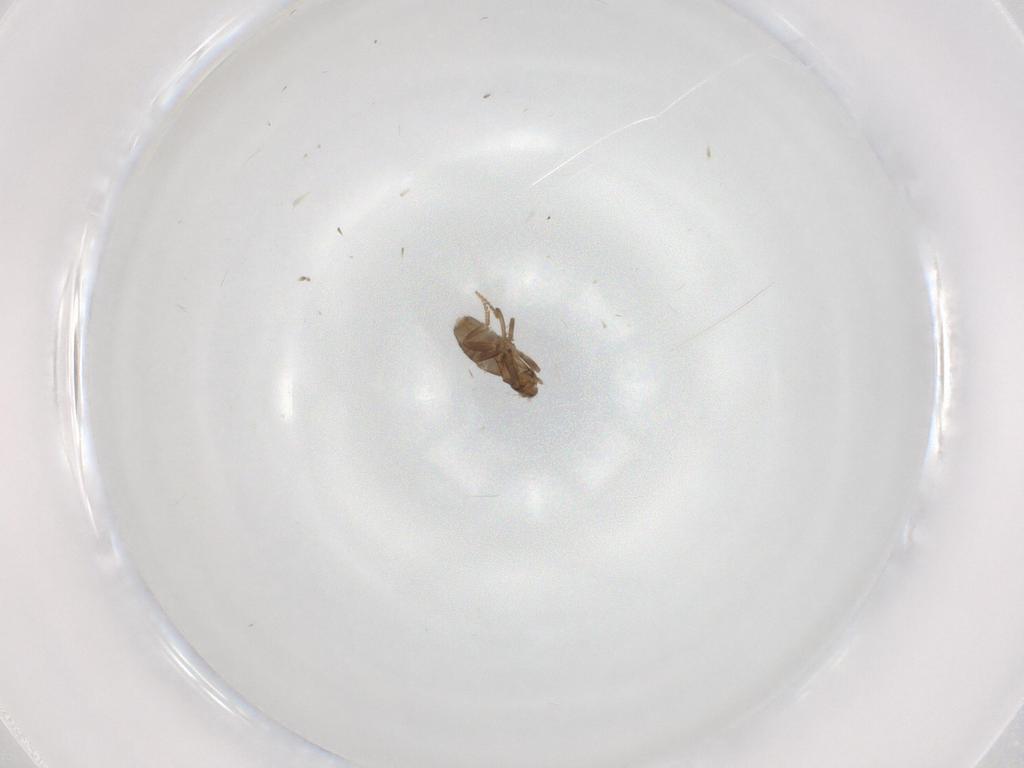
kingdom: Animalia
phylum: Arthropoda
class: Insecta
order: Diptera
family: Phoridae
